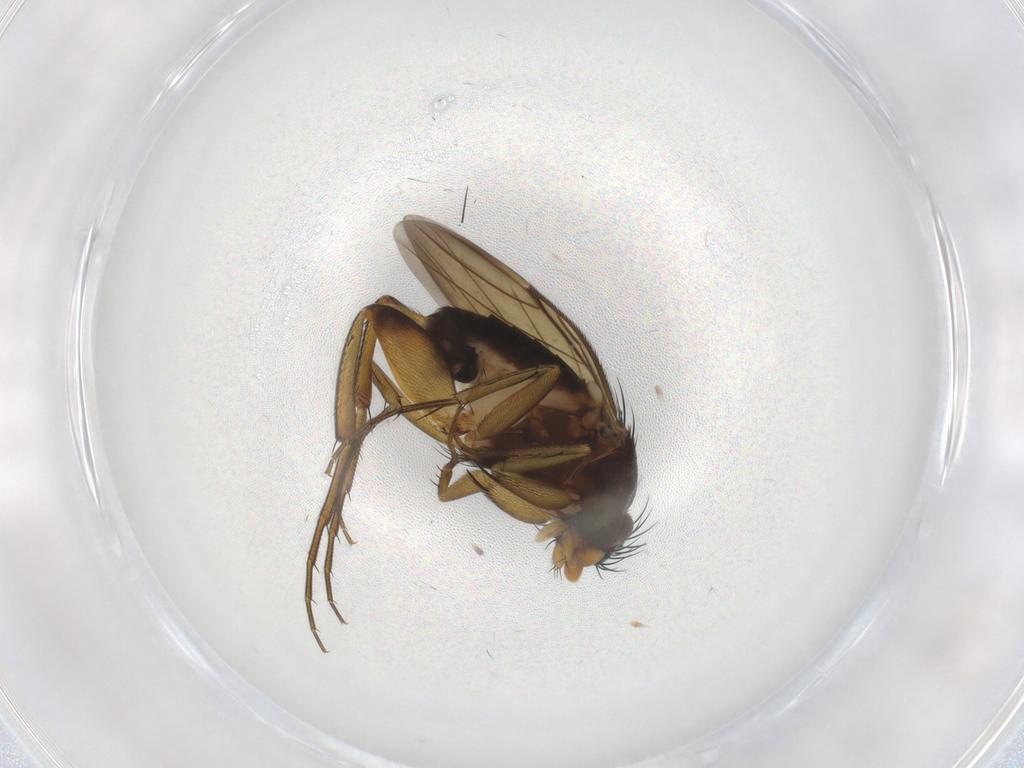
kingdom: Animalia
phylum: Arthropoda
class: Insecta
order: Diptera
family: Phoridae
